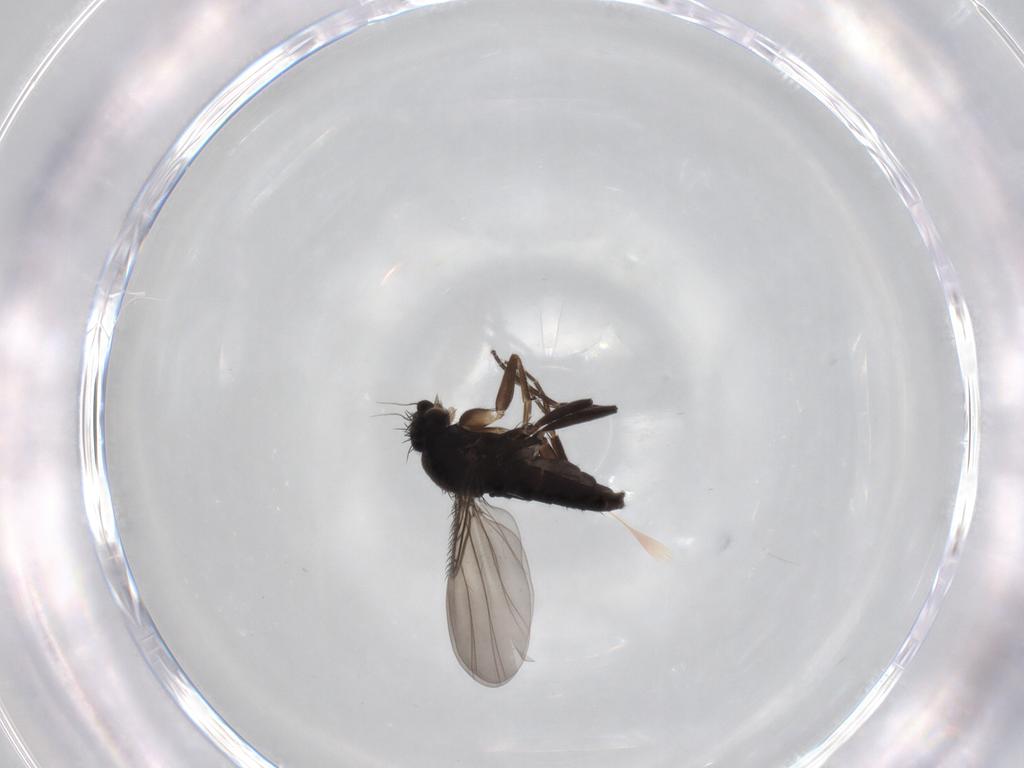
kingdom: Animalia
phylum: Arthropoda
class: Insecta
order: Diptera
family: Phoridae
